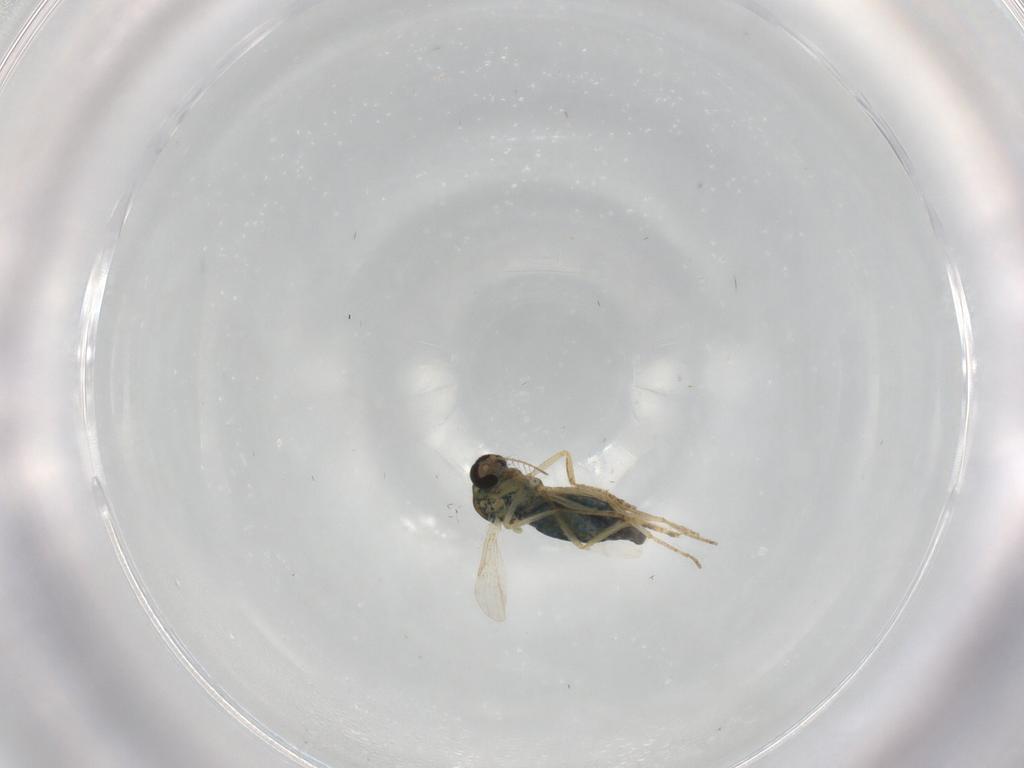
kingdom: Animalia
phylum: Arthropoda
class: Insecta
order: Diptera
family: Ceratopogonidae
